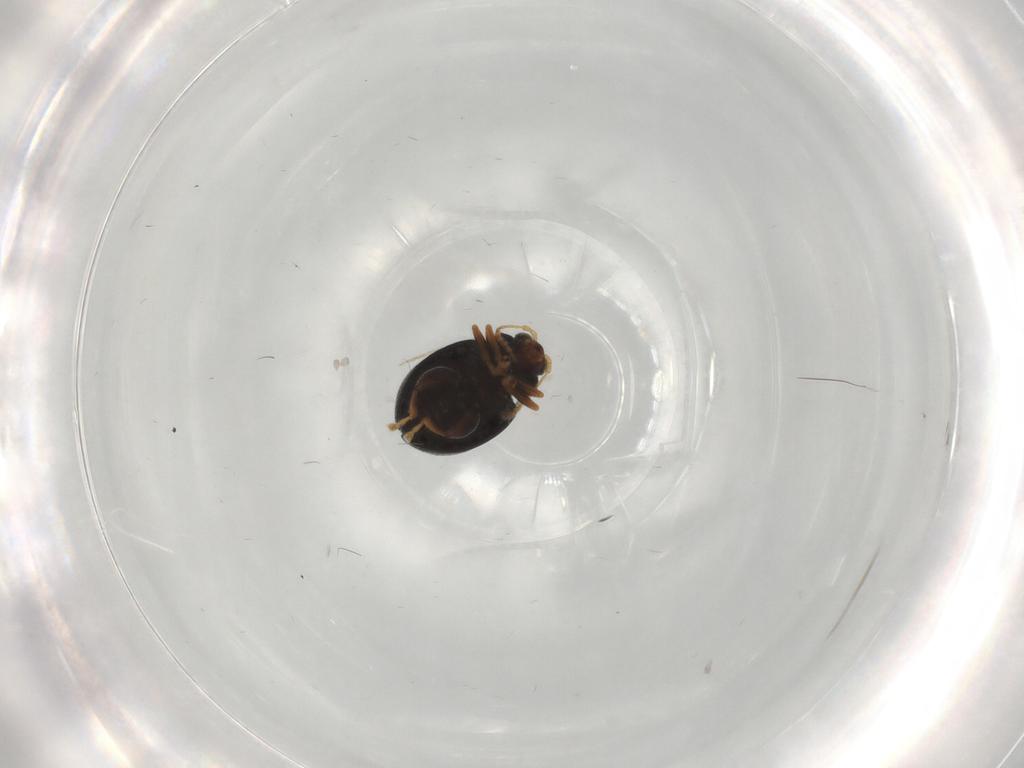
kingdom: Animalia
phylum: Arthropoda
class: Insecta
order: Coleoptera
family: Chrysomelidae
